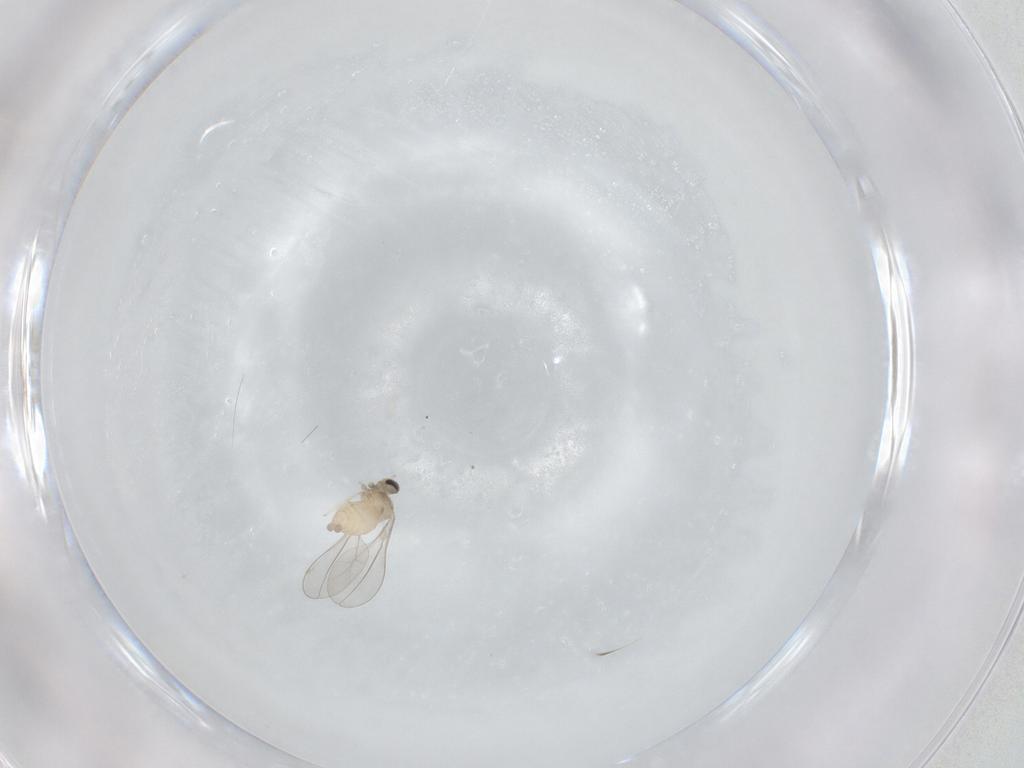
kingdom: Animalia
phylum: Arthropoda
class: Insecta
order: Diptera
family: Cecidomyiidae
